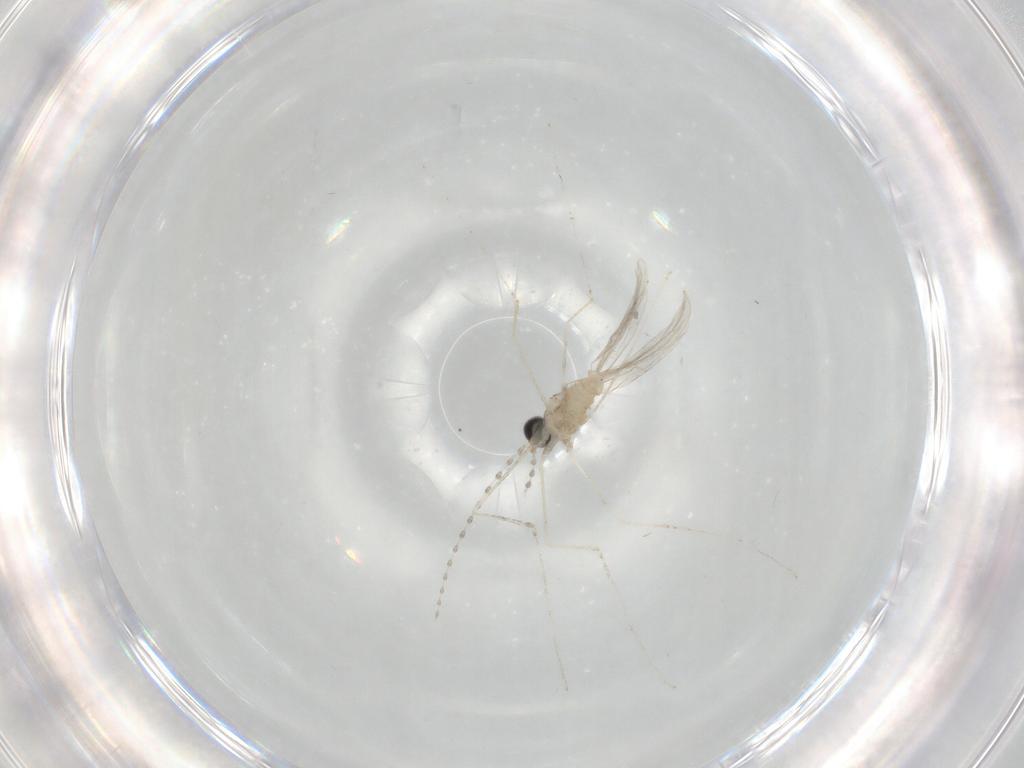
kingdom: Animalia
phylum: Arthropoda
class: Insecta
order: Diptera
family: Cecidomyiidae
